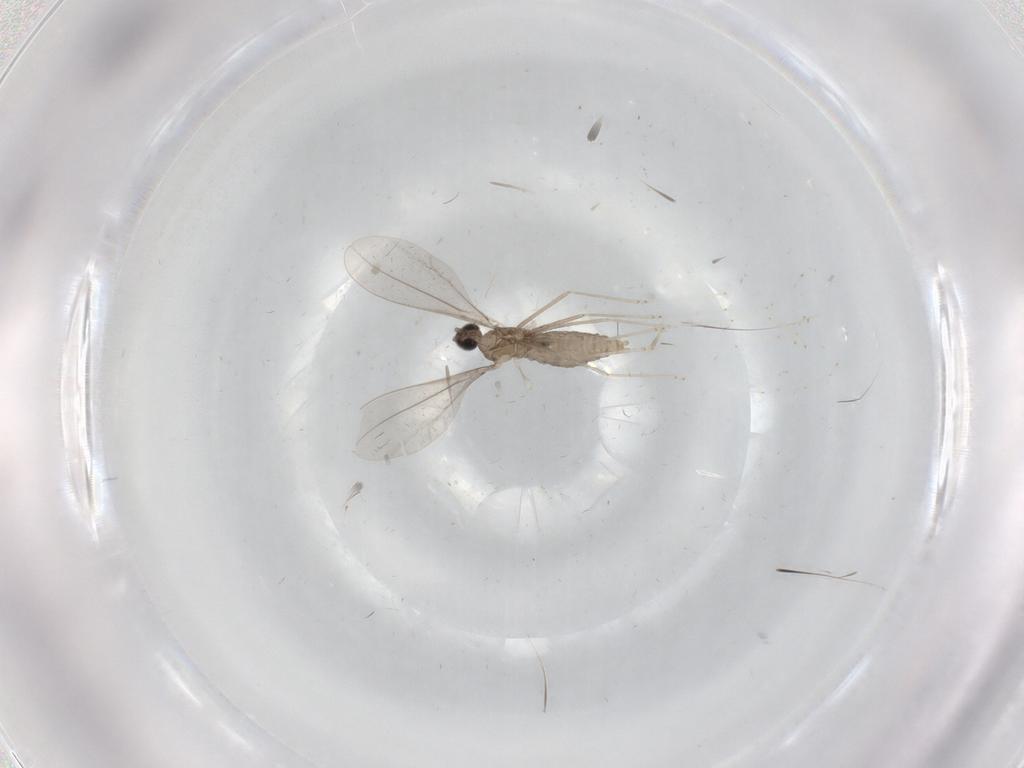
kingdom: Animalia
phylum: Arthropoda
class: Insecta
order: Diptera
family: Cecidomyiidae
